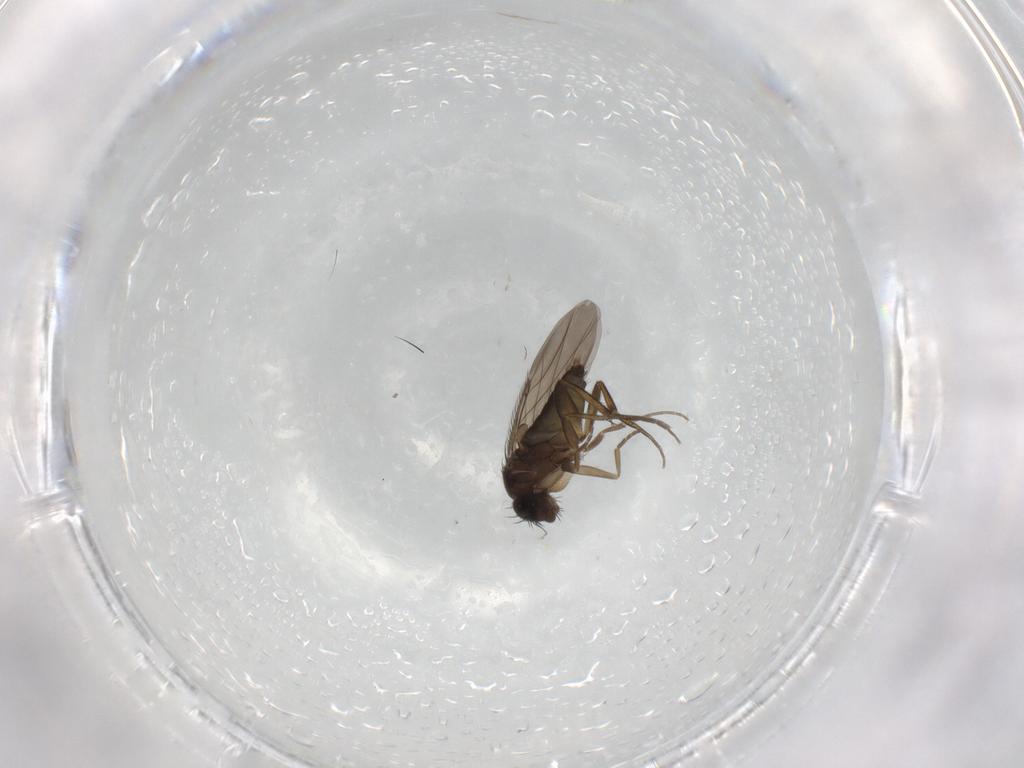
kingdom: Animalia
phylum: Arthropoda
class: Insecta
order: Diptera
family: Phoridae
